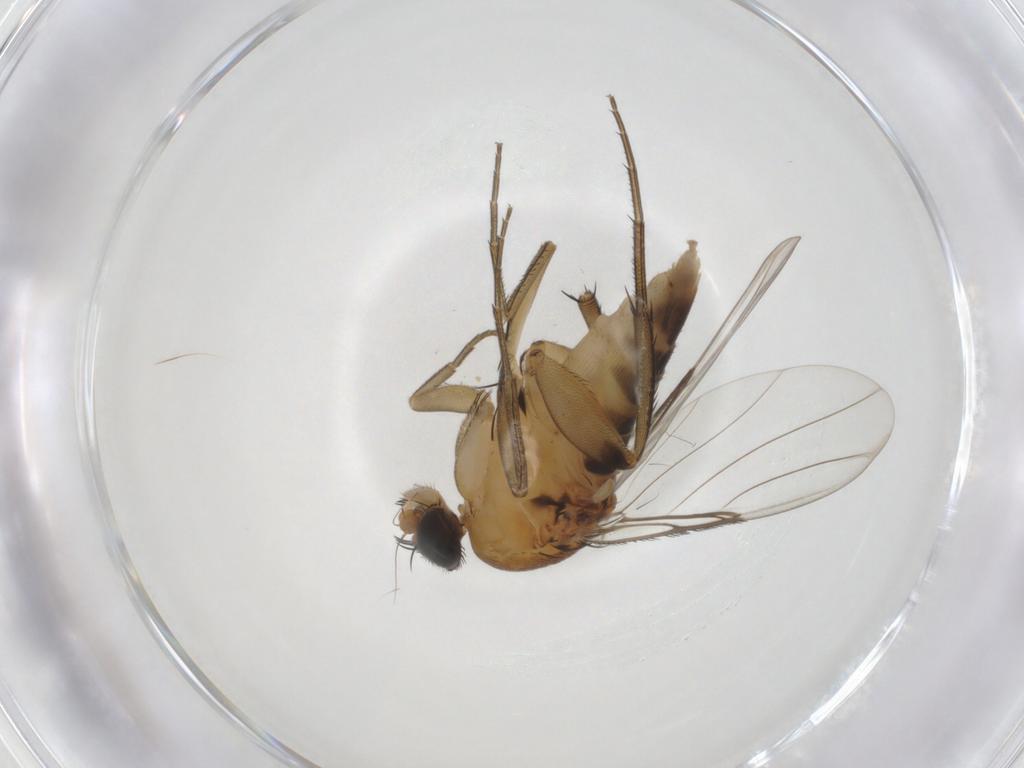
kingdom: Animalia
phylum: Arthropoda
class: Insecta
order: Diptera
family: Phoridae
